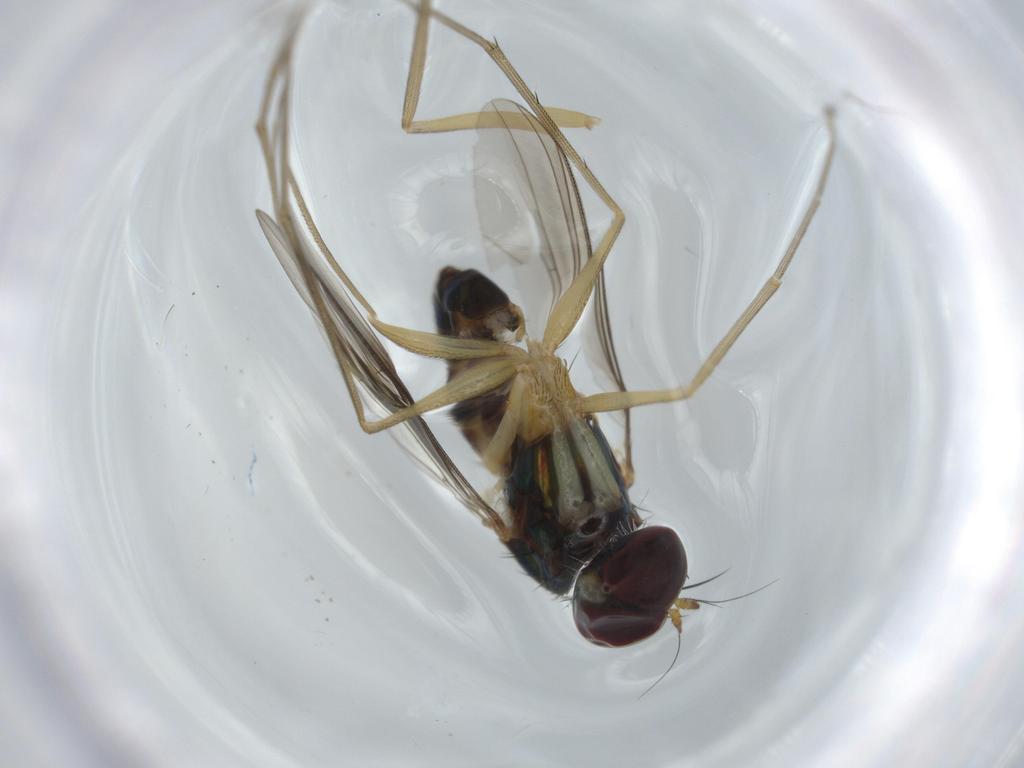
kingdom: Animalia
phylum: Arthropoda
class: Insecta
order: Diptera
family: Dolichopodidae
